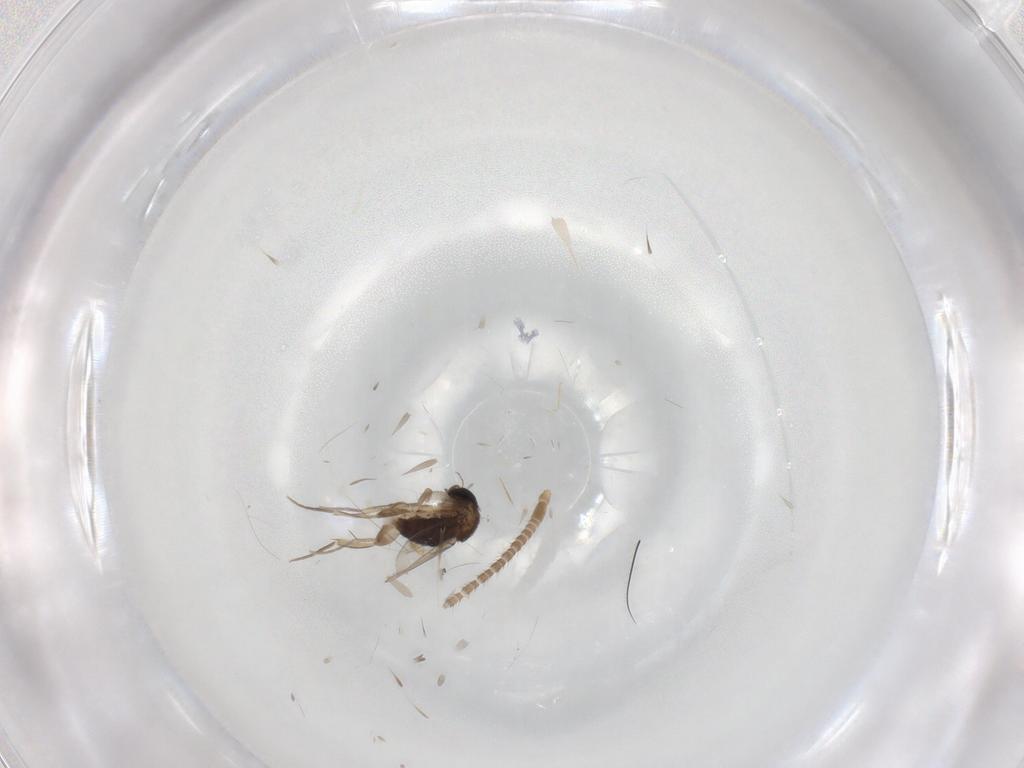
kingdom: Animalia
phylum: Arthropoda
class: Insecta
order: Diptera
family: Phoridae
